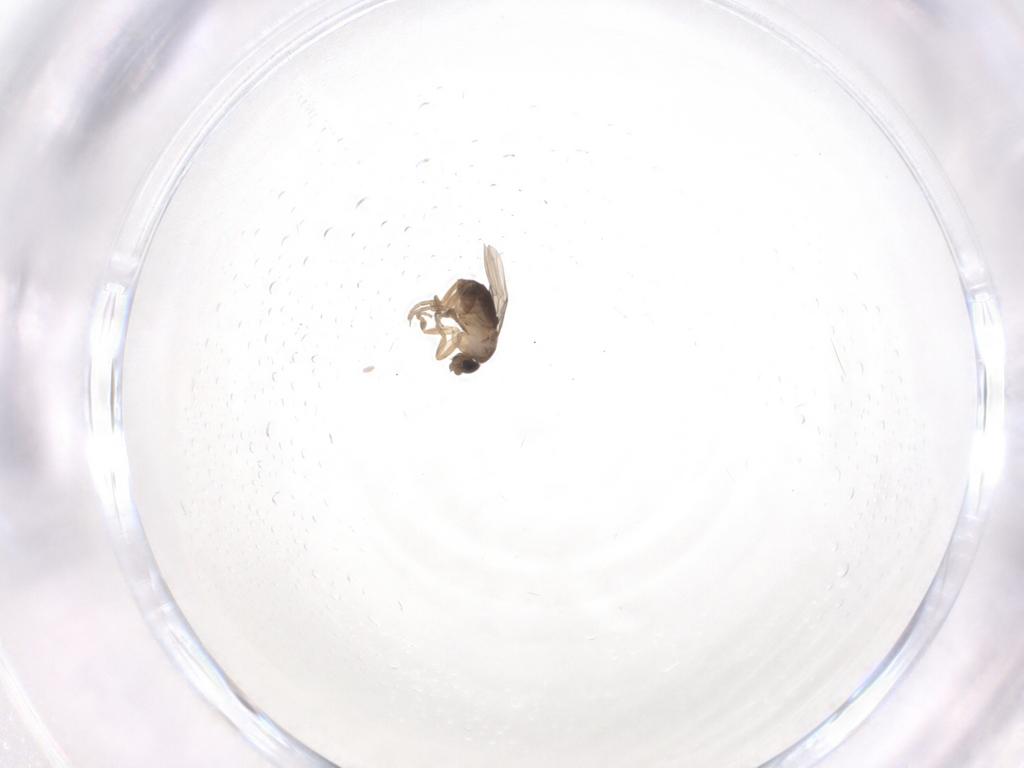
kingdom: Animalia
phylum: Arthropoda
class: Insecta
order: Diptera
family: Phoridae
